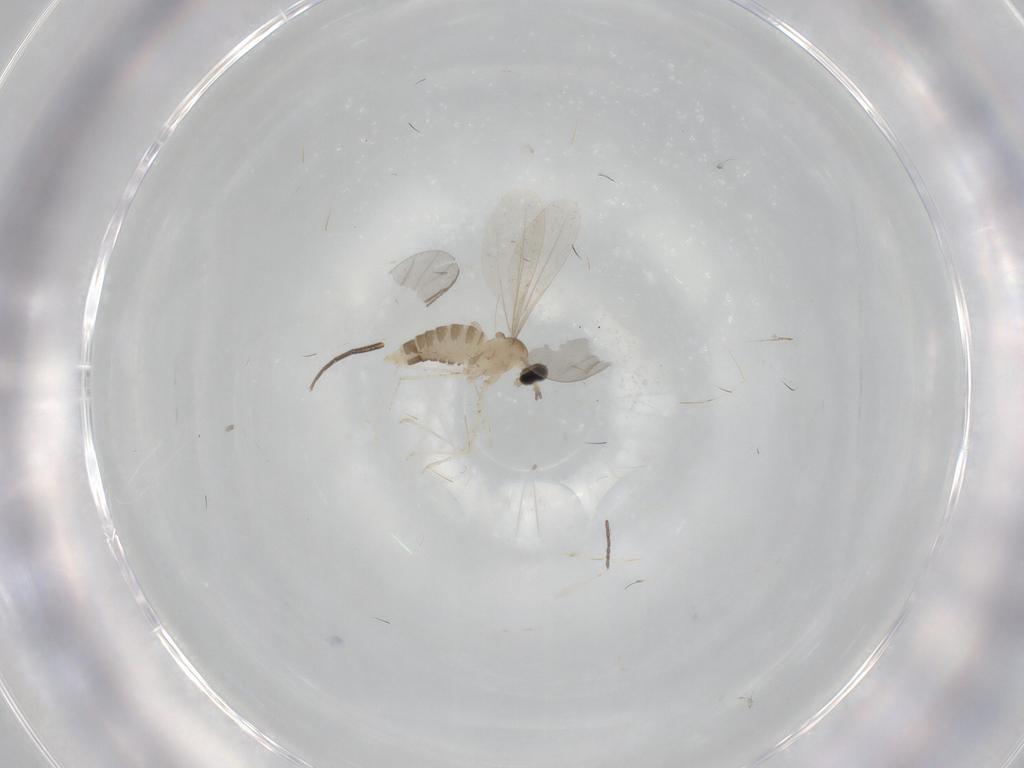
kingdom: Animalia
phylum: Arthropoda
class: Insecta
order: Diptera
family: Cecidomyiidae
